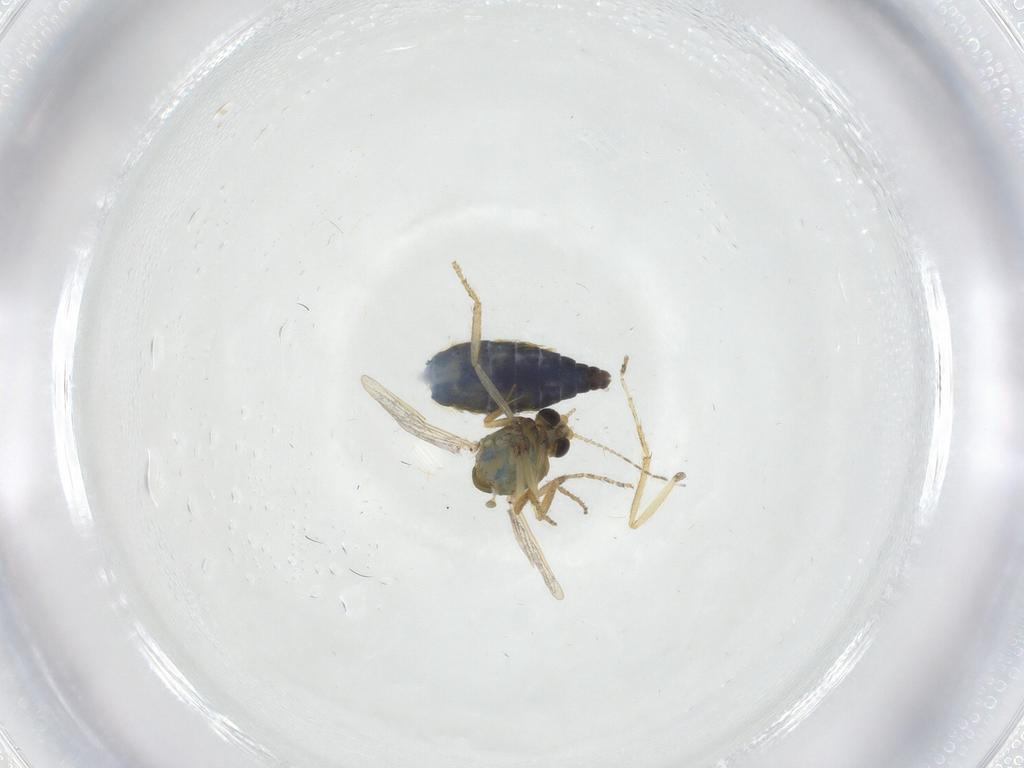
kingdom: Animalia
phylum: Arthropoda
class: Insecta
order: Diptera
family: Ceratopogonidae
